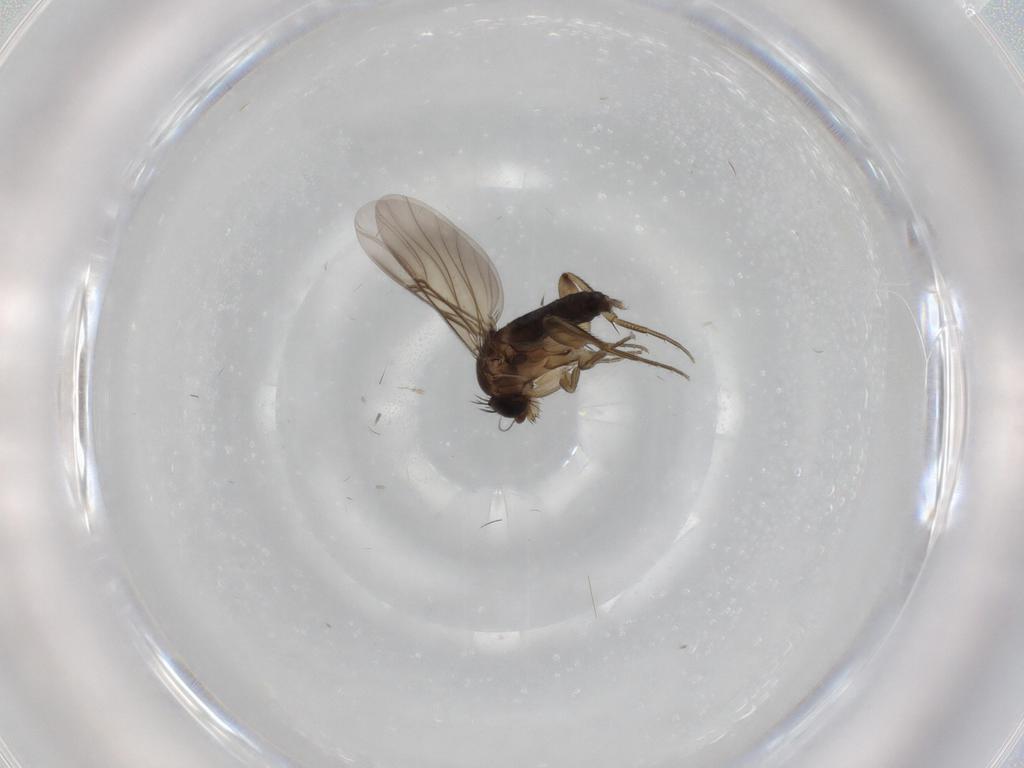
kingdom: Animalia
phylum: Arthropoda
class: Insecta
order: Diptera
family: Phoridae
